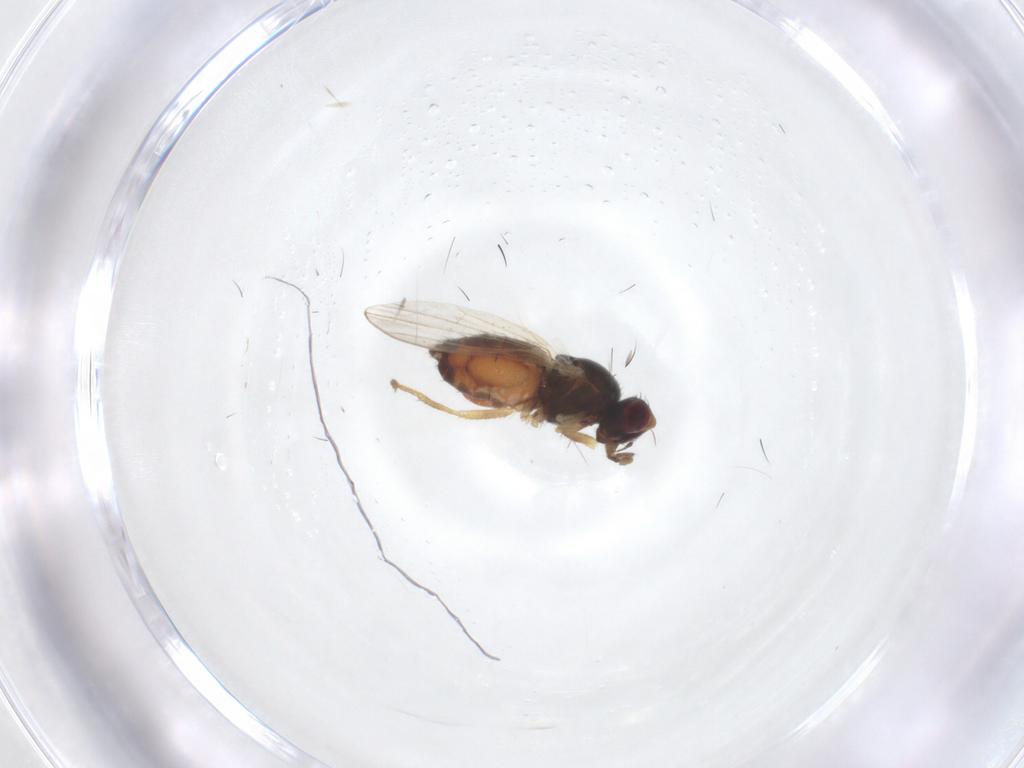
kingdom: Animalia
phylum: Arthropoda
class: Insecta
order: Diptera
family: Heleomyzidae
